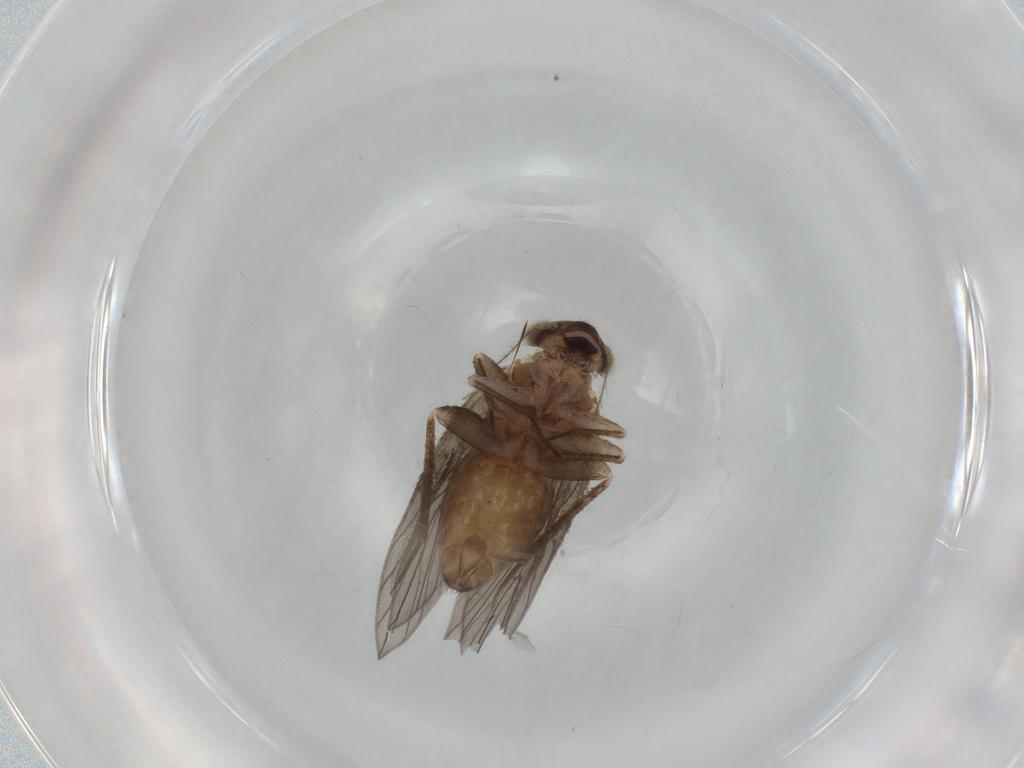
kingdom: Animalia
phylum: Arthropoda
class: Insecta
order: Psocodea
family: Lepidopsocidae
